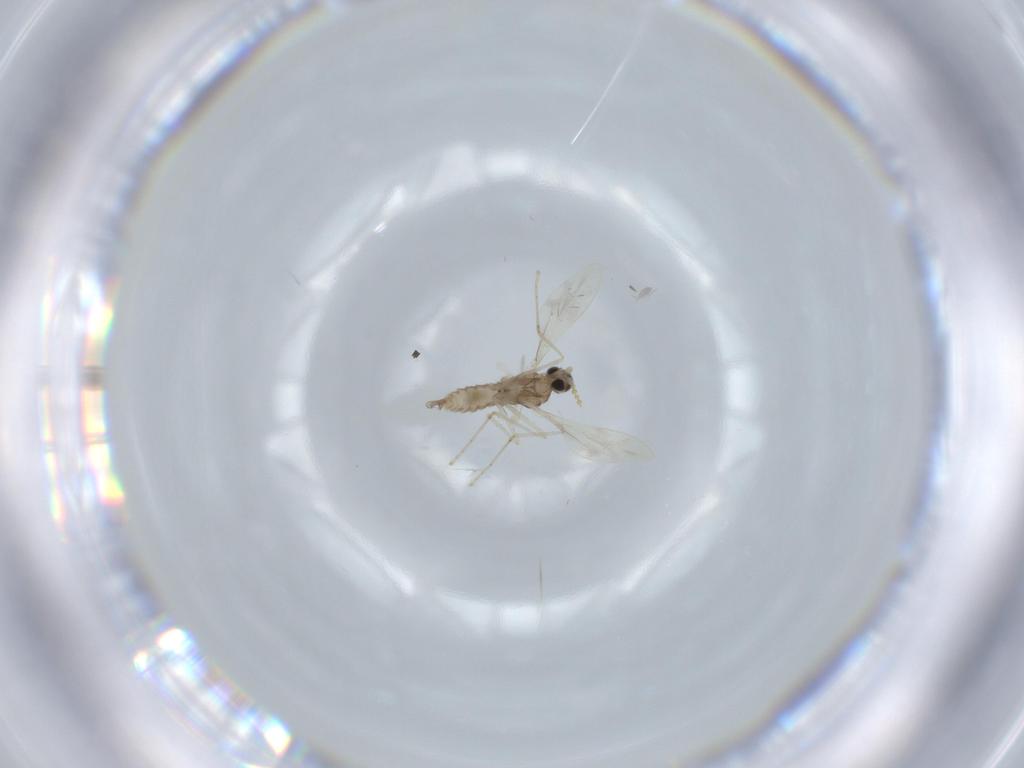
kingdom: Animalia
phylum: Arthropoda
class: Insecta
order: Diptera
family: Cecidomyiidae
